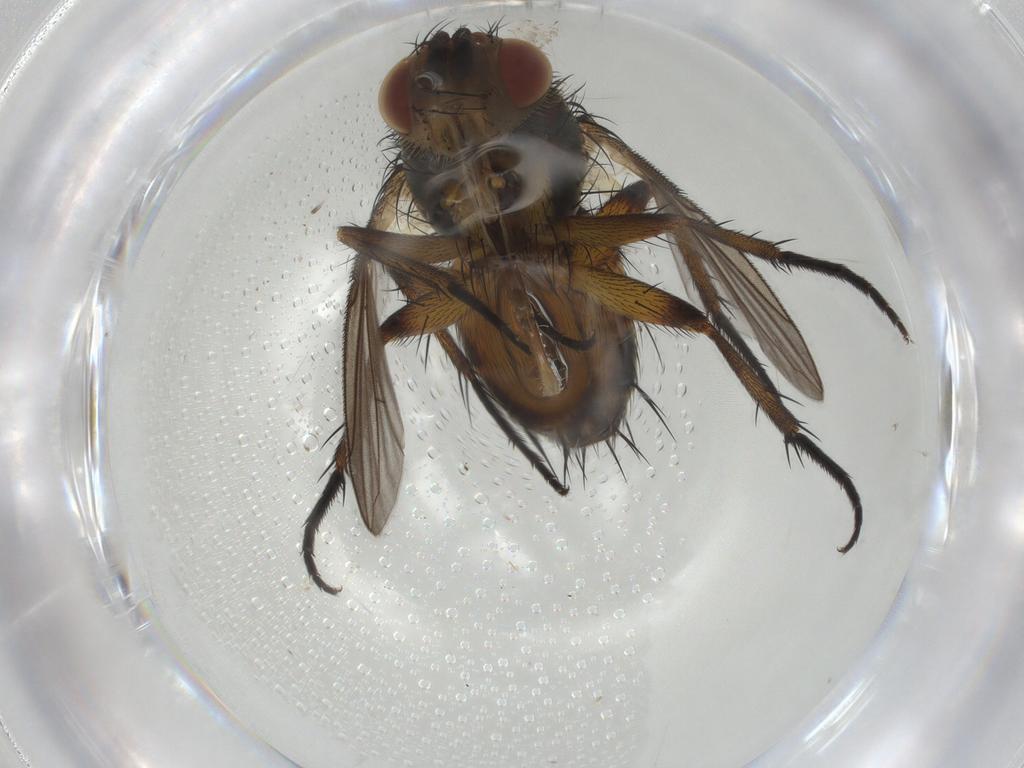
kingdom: Animalia
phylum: Arthropoda
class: Insecta
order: Diptera
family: Tachinidae
